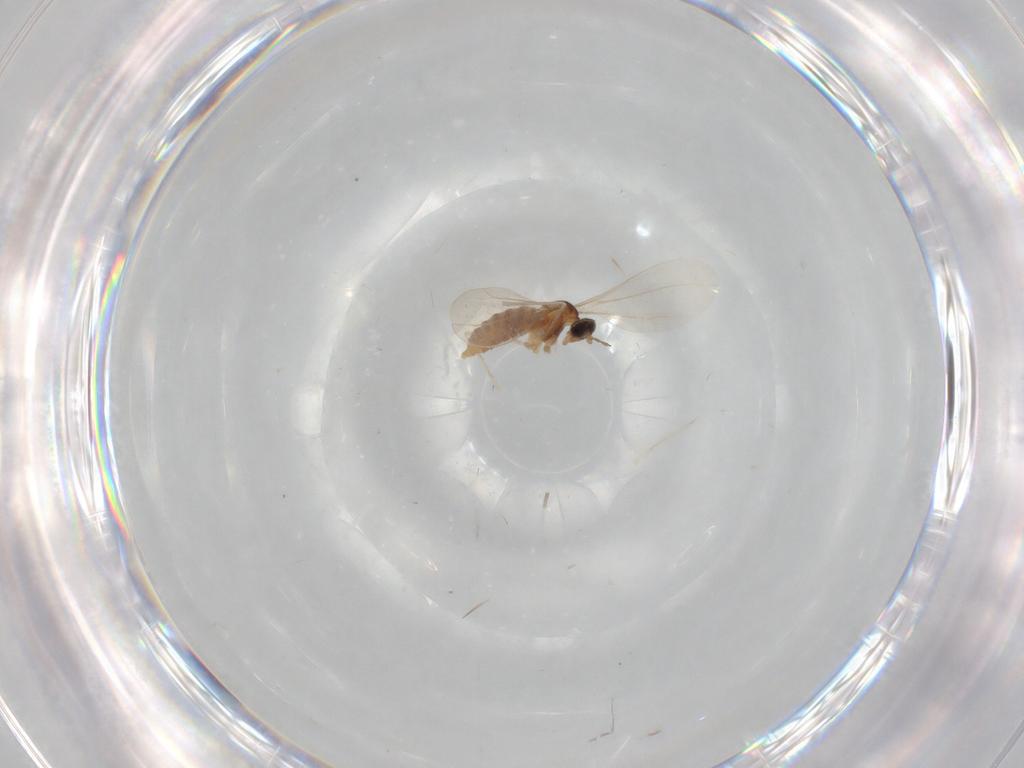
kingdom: Animalia
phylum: Arthropoda
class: Insecta
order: Diptera
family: Cecidomyiidae
